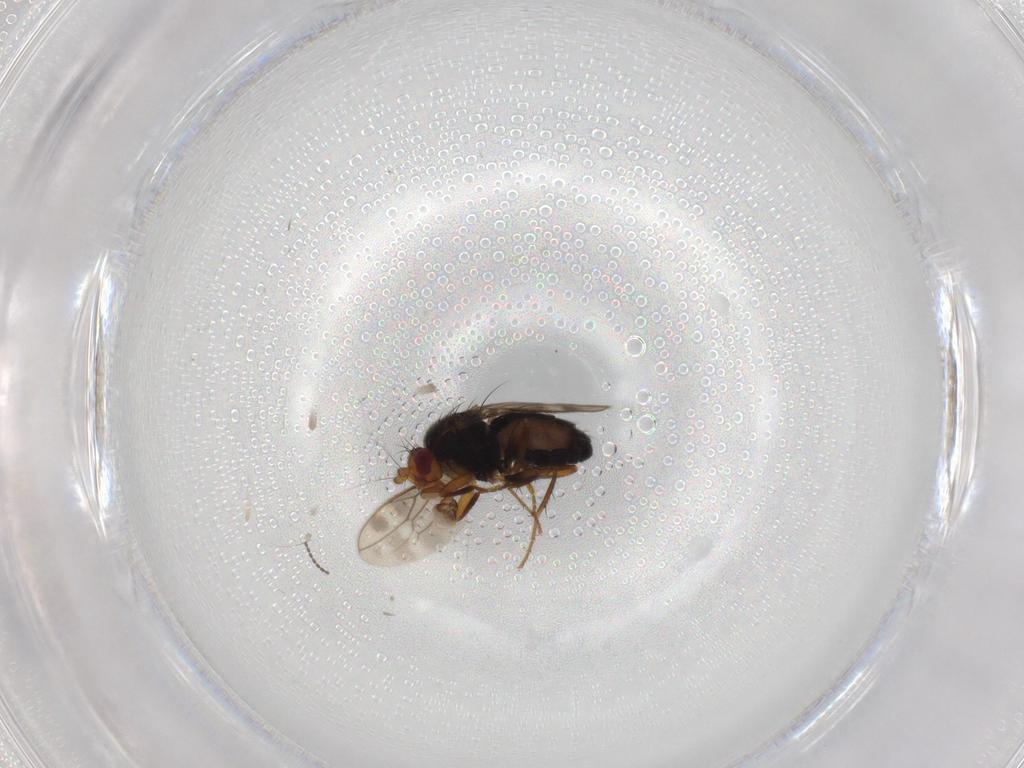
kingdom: Animalia
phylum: Arthropoda
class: Insecta
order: Diptera
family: Sphaeroceridae
